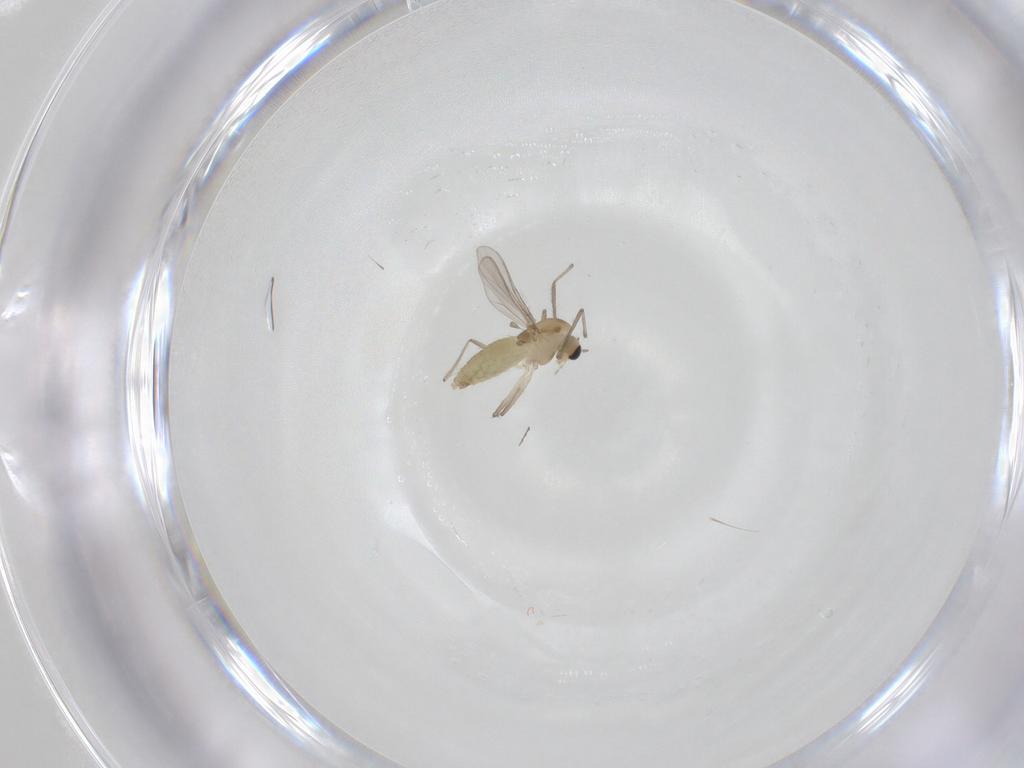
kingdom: Animalia
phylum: Arthropoda
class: Insecta
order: Diptera
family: Chironomidae
